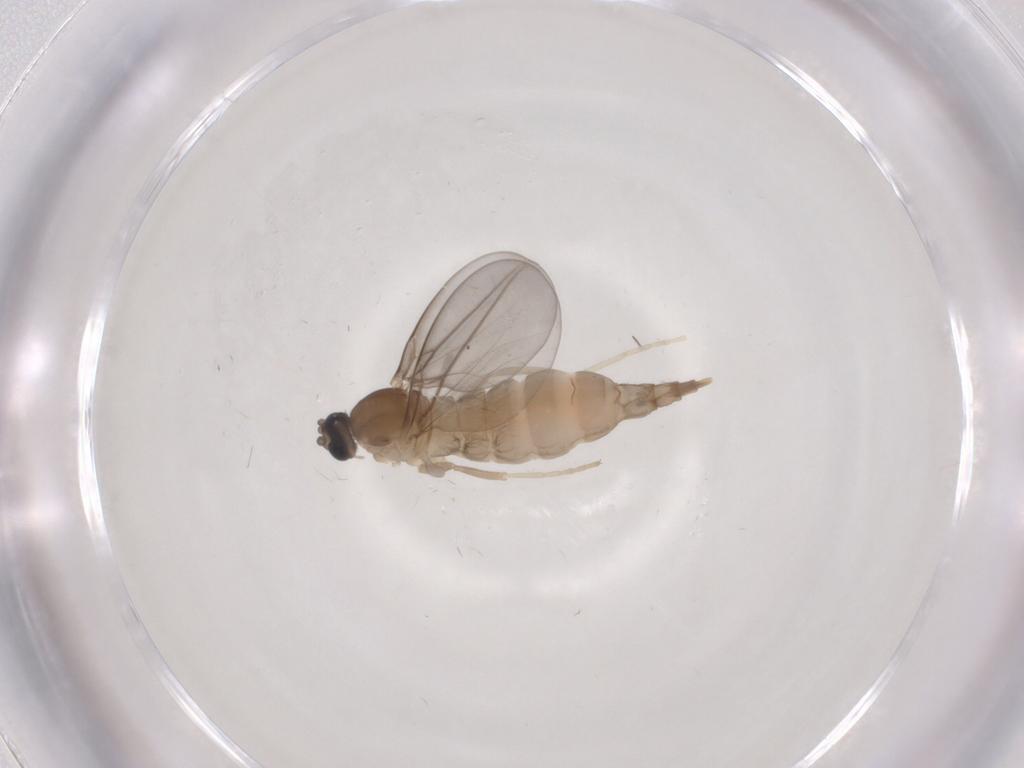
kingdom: Animalia
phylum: Arthropoda
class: Insecta
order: Diptera
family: Cecidomyiidae
